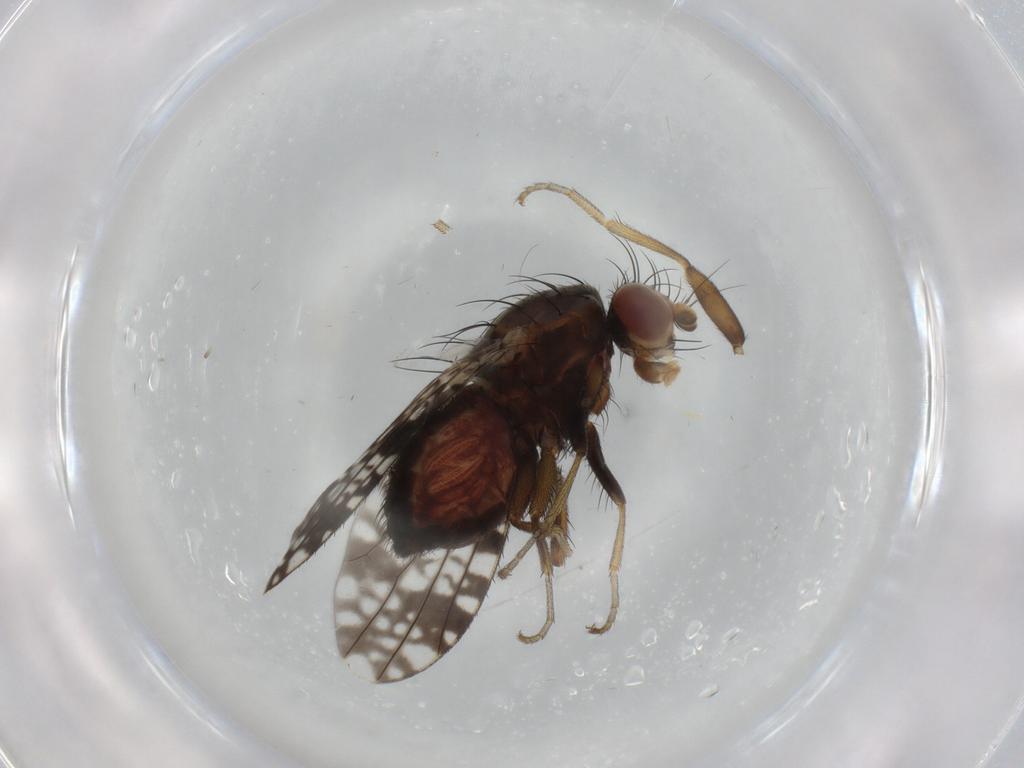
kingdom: Animalia
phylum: Arthropoda
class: Insecta
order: Diptera
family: Tephritidae
